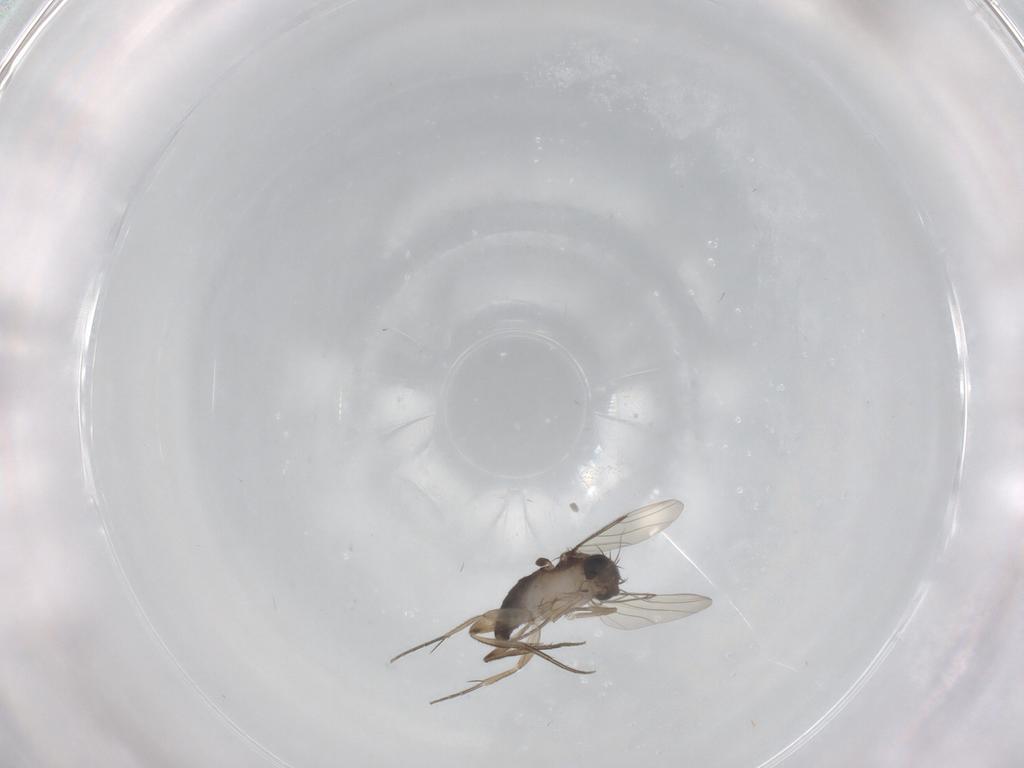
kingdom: Animalia
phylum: Arthropoda
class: Insecta
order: Diptera
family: Phoridae
